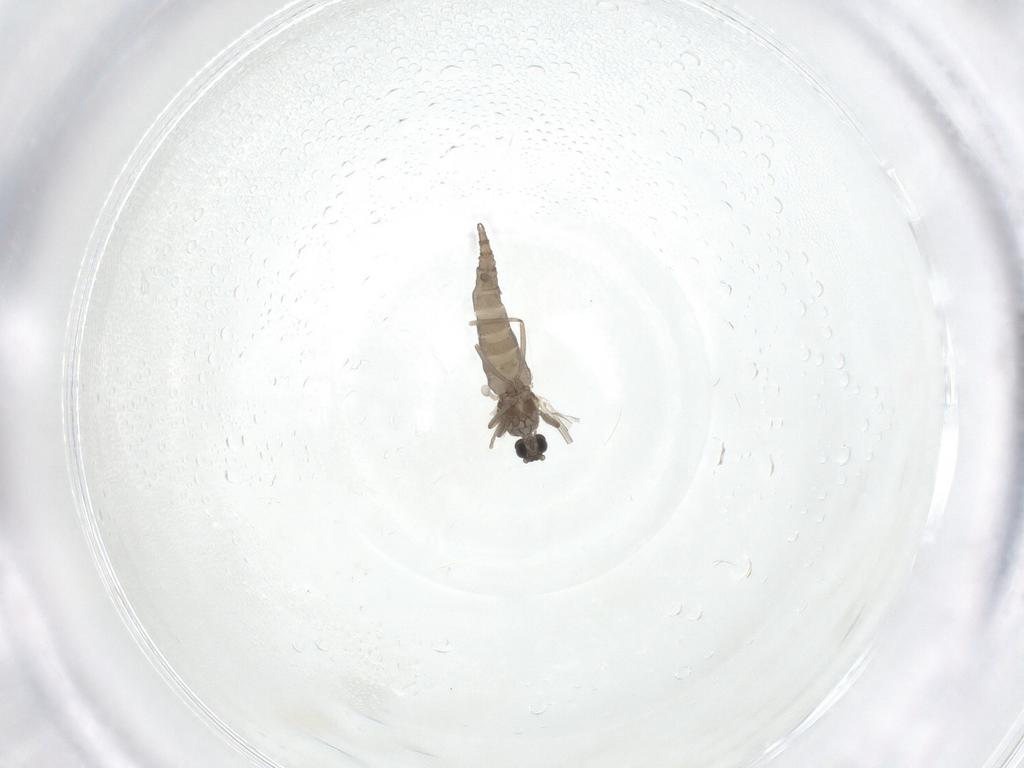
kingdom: Animalia
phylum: Arthropoda
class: Insecta
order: Diptera
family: Cecidomyiidae
